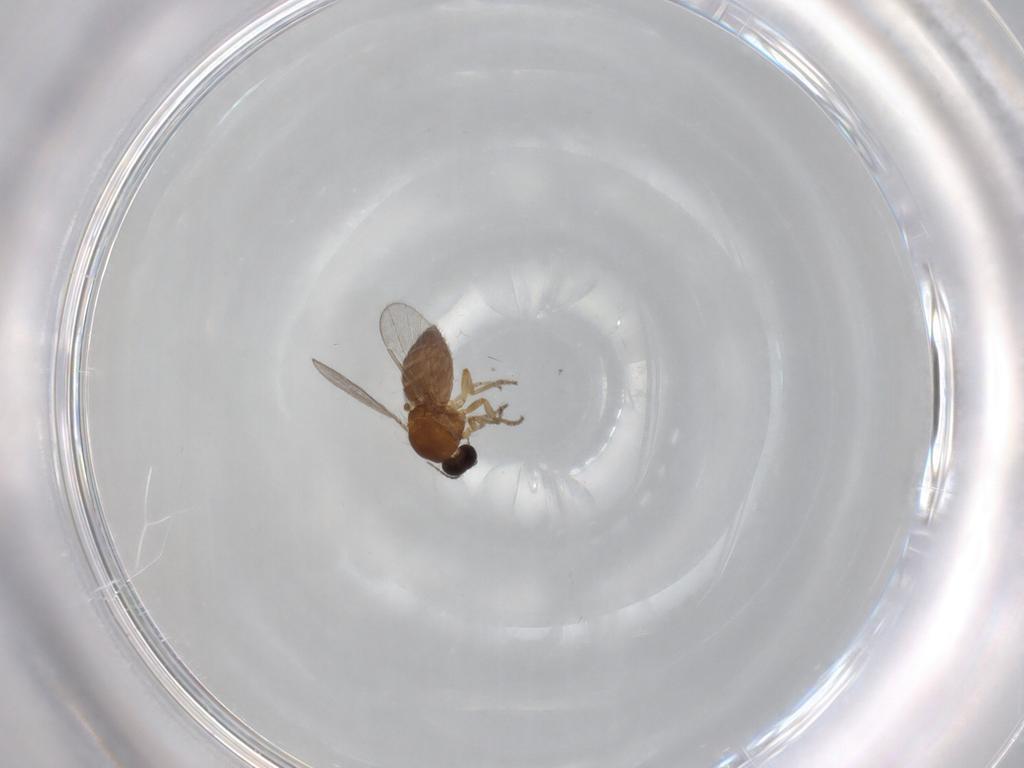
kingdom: Animalia
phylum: Arthropoda
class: Insecta
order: Diptera
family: Ceratopogonidae
